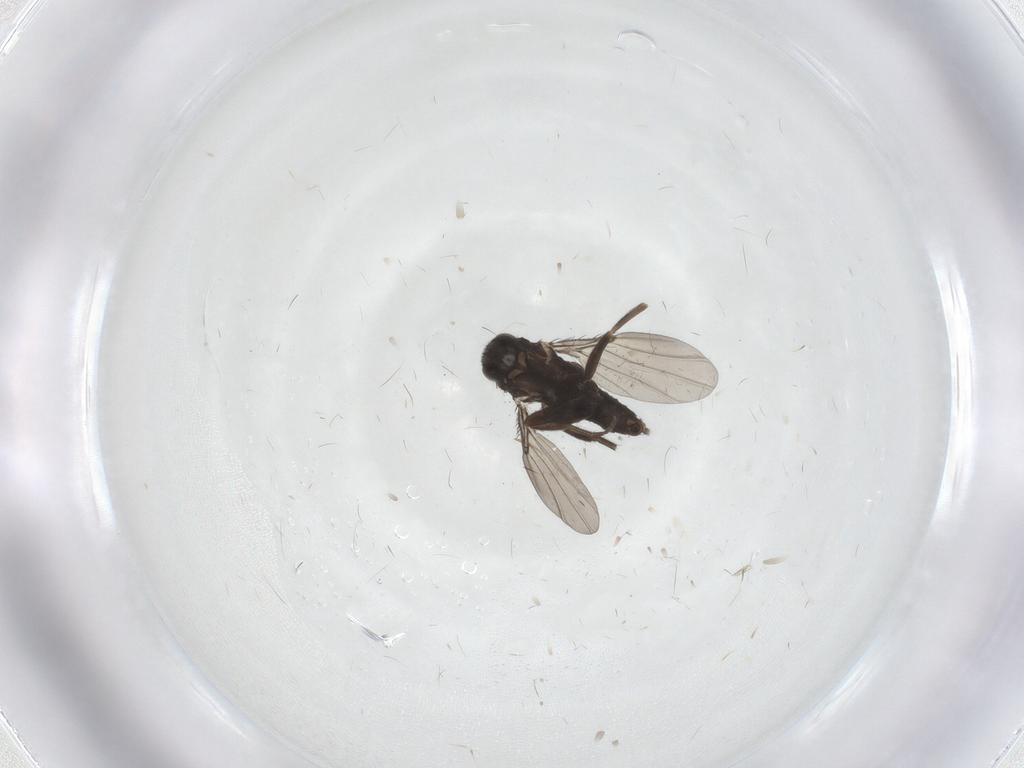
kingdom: Animalia
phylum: Arthropoda
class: Insecta
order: Diptera
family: Phoridae
